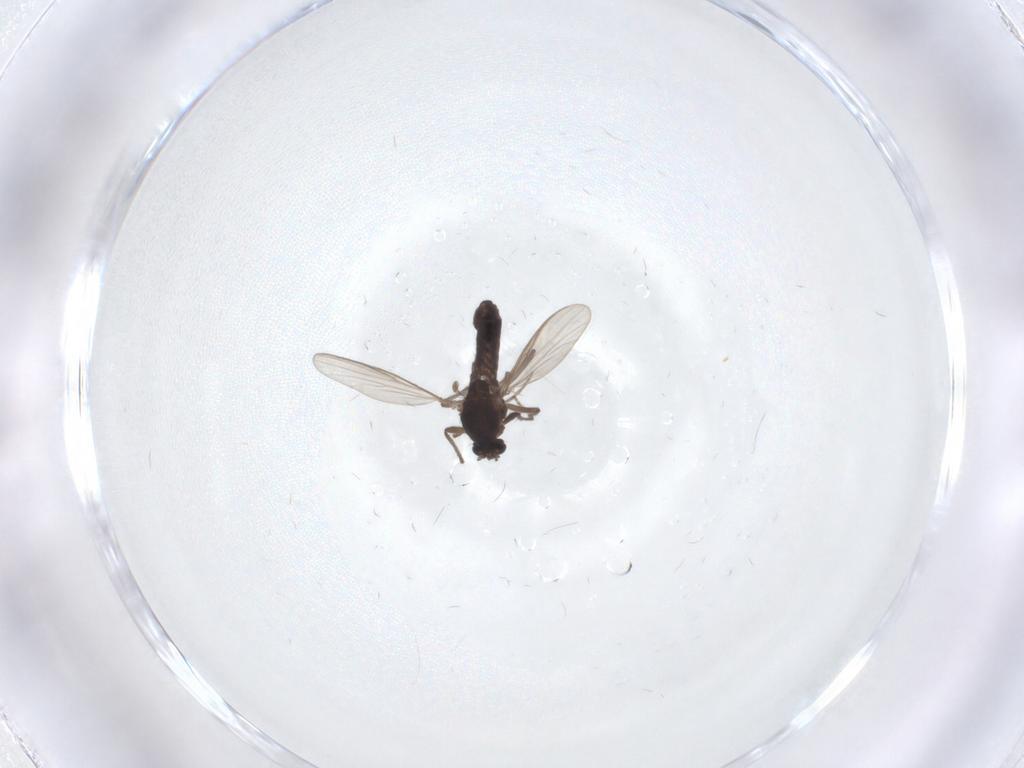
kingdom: Animalia
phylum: Arthropoda
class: Insecta
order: Diptera
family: Chironomidae
